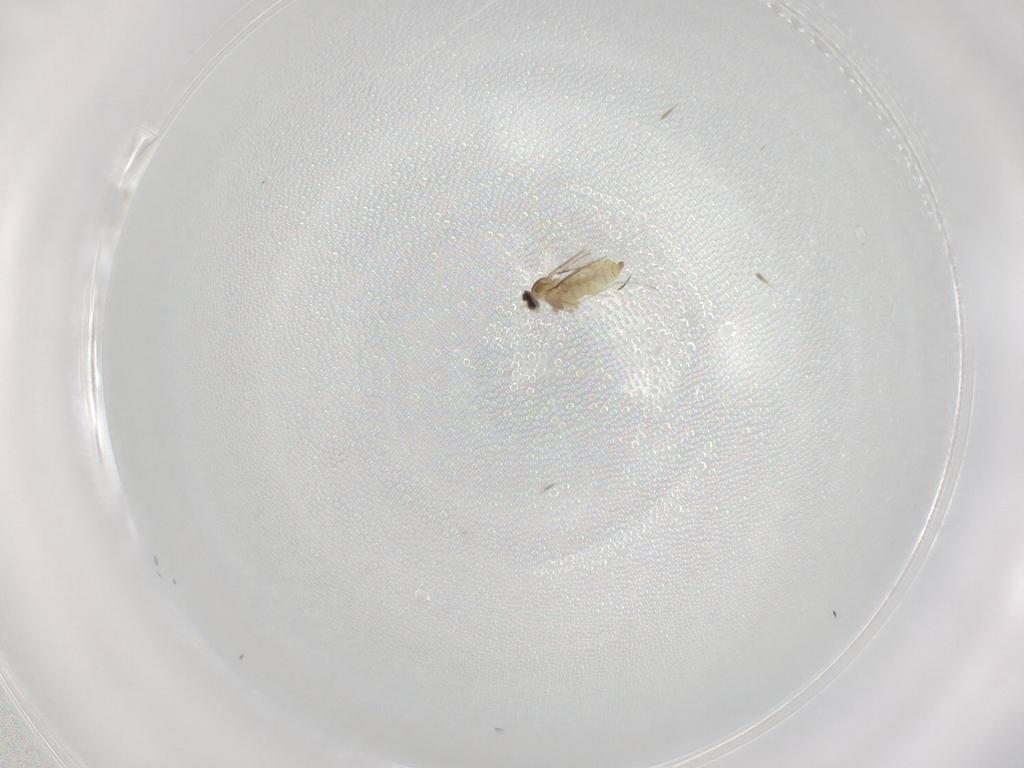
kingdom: Animalia
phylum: Arthropoda
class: Insecta
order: Diptera
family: Cecidomyiidae
